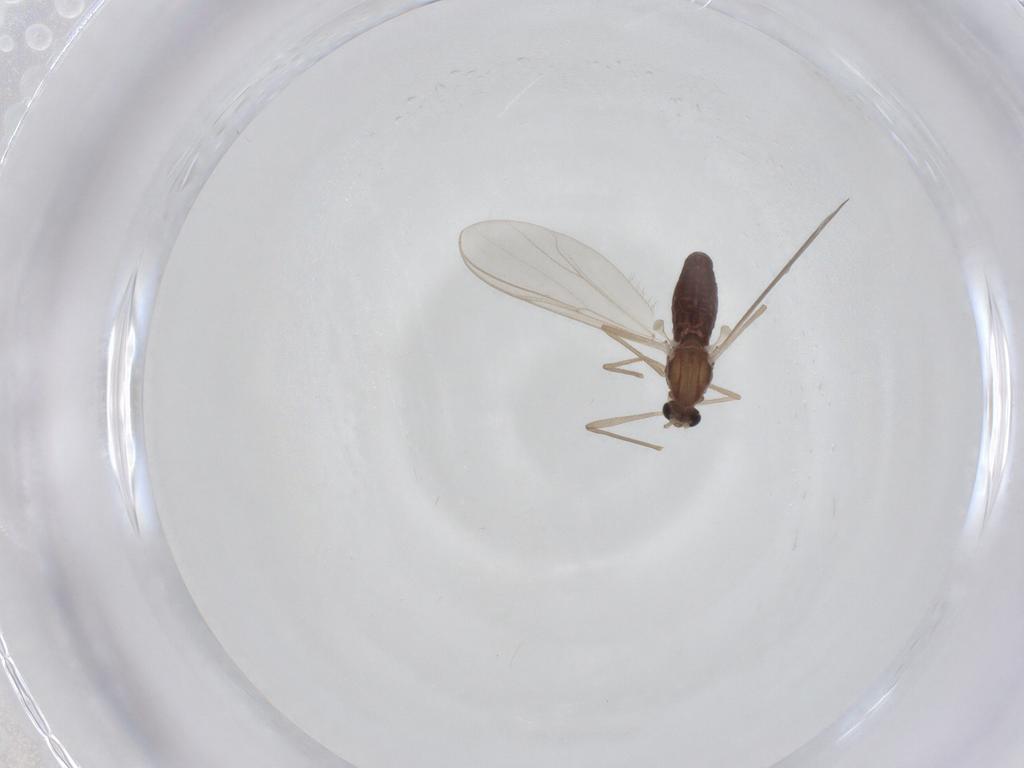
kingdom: Animalia
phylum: Arthropoda
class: Insecta
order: Diptera
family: Chironomidae
